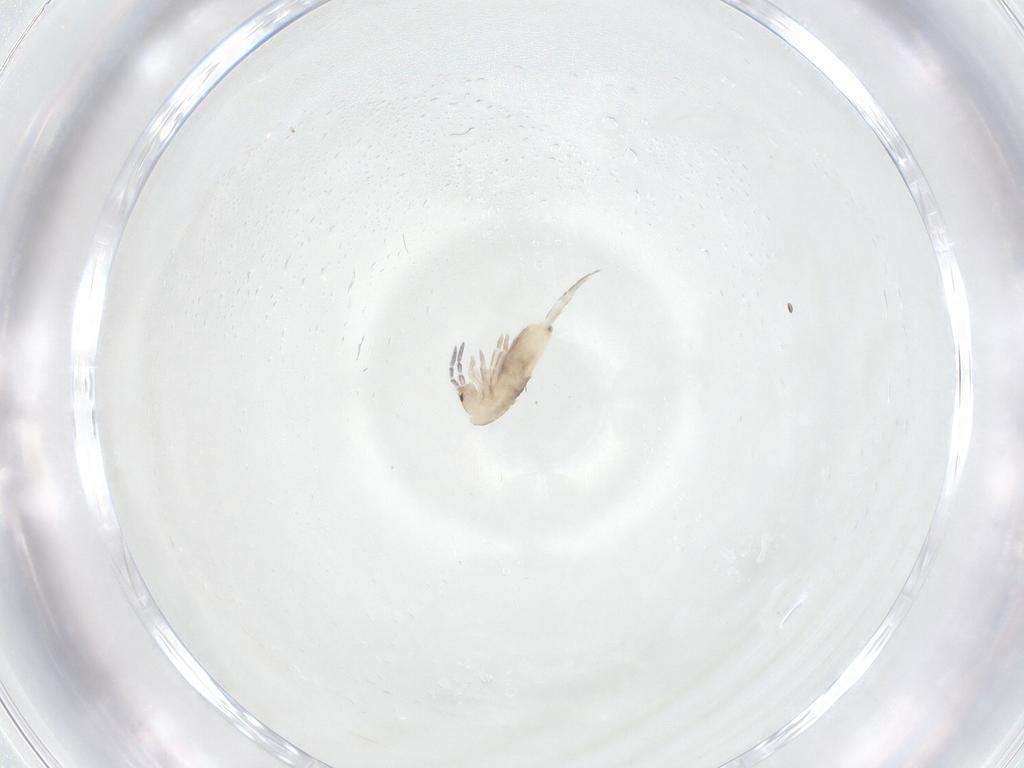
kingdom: Animalia
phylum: Arthropoda
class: Collembola
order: Entomobryomorpha
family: Entomobryidae
